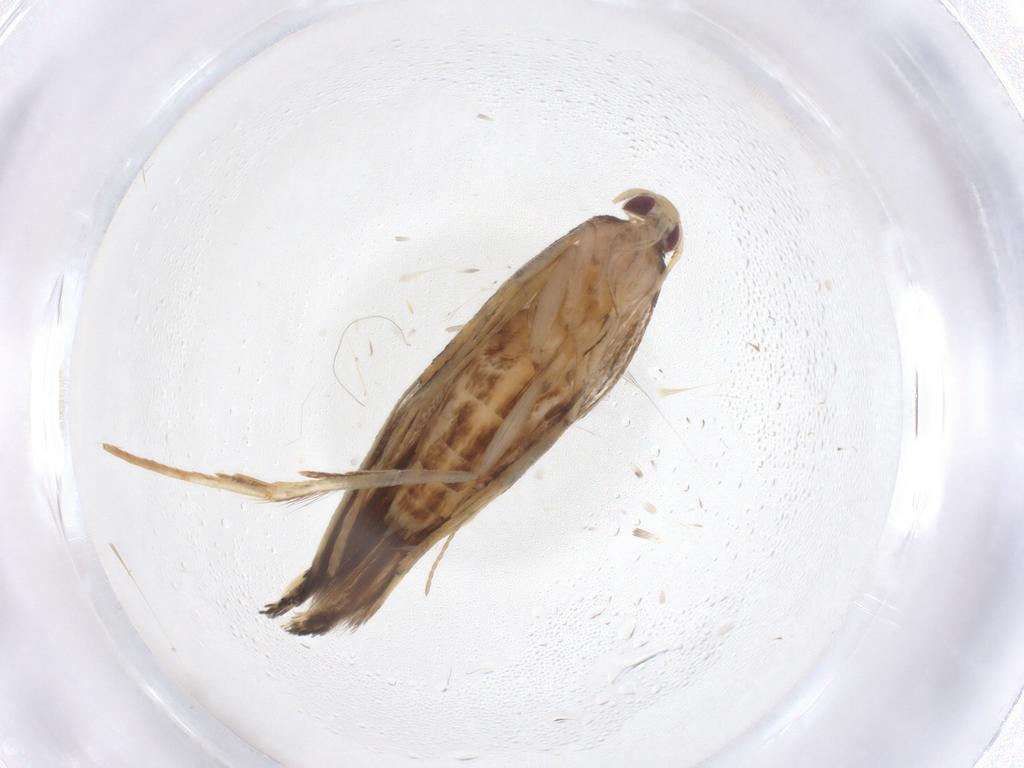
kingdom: Animalia
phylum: Arthropoda
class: Insecta
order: Lepidoptera
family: Cosmopterigidae
